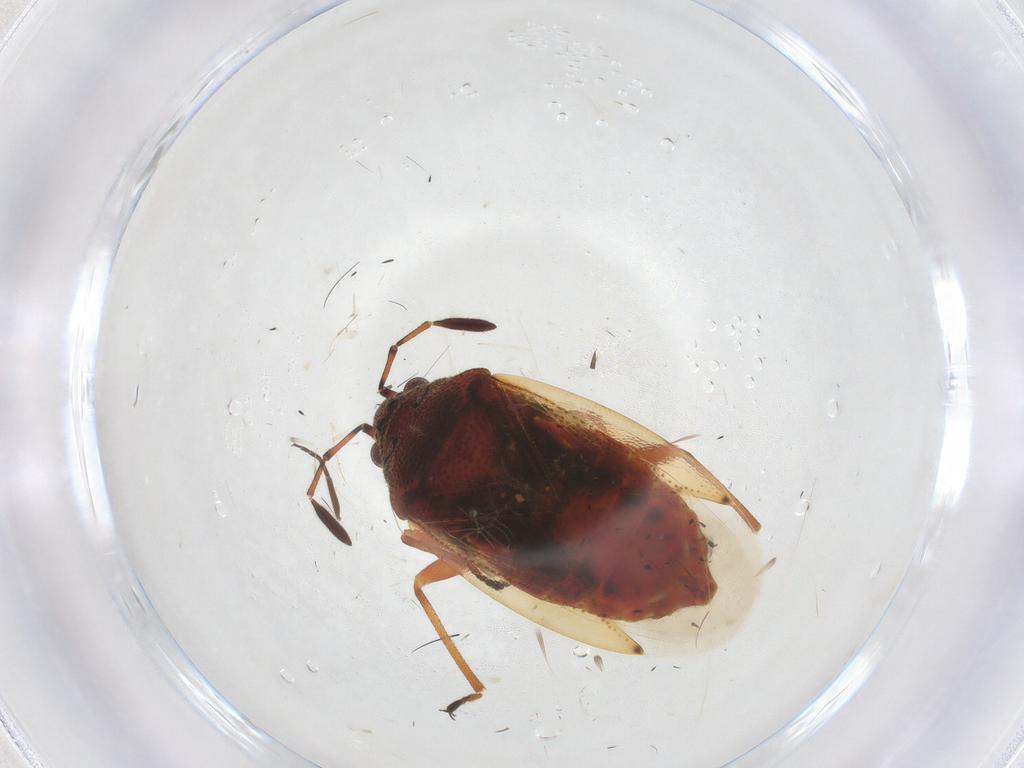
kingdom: Animalia
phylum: Arthropoda
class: Insecta
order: Hemiptera
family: Lygaeidae
